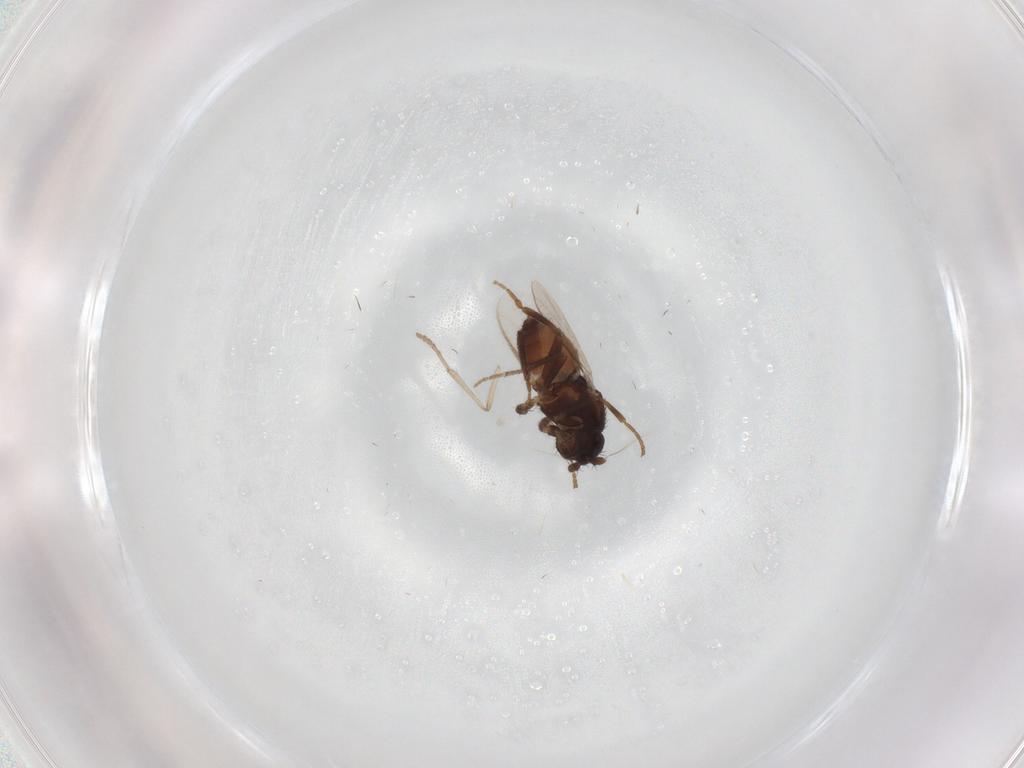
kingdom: Animalia
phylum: Arthropoda
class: Insecta
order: Diptera
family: Sphaeroceridae
